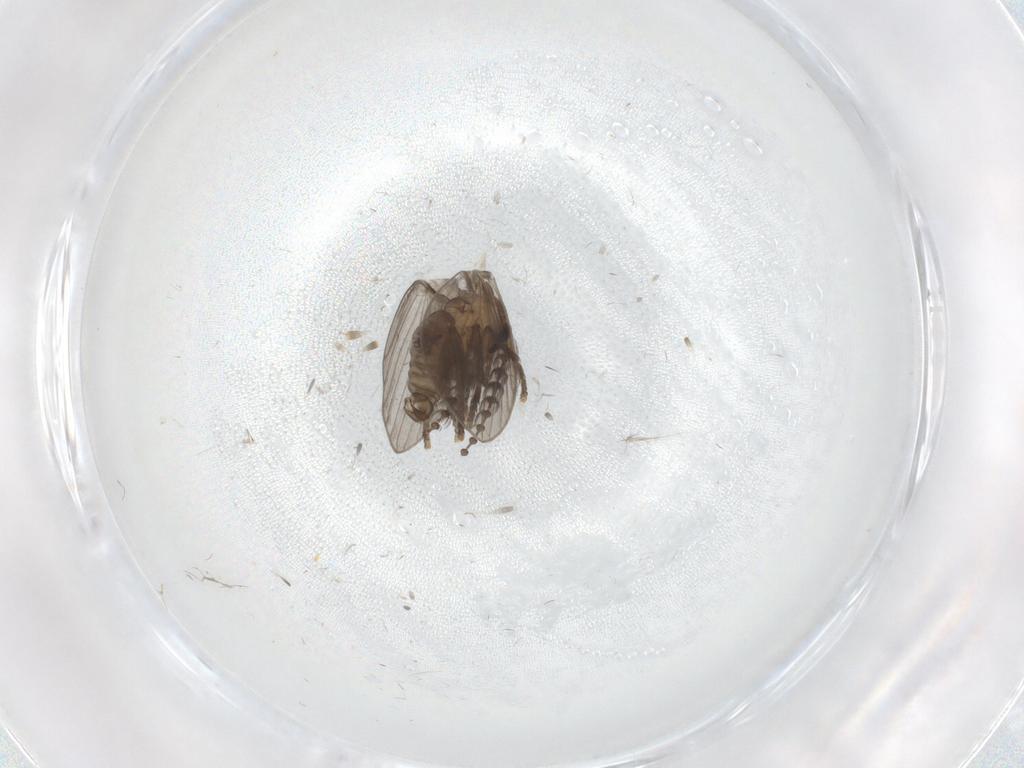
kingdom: Animalia
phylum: Arthropoda
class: Insecta
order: Diptera
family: Psychodidae
